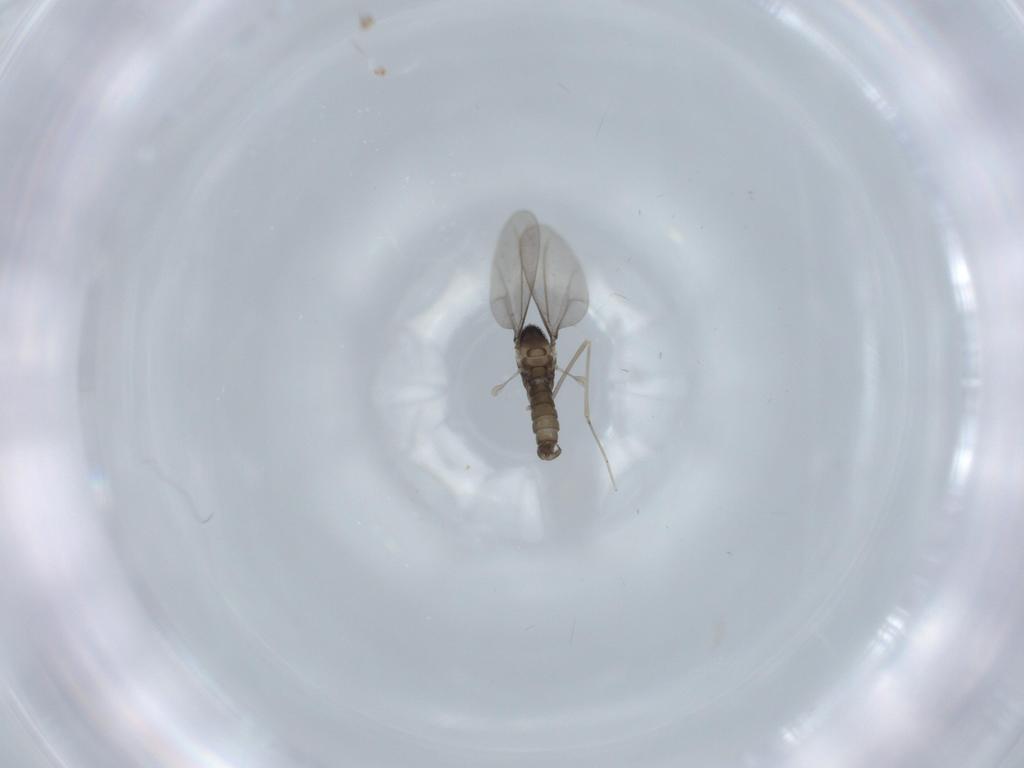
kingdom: Animalia
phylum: Arthropoda
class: Insecta
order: Diptera
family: Cecidomyiidae
